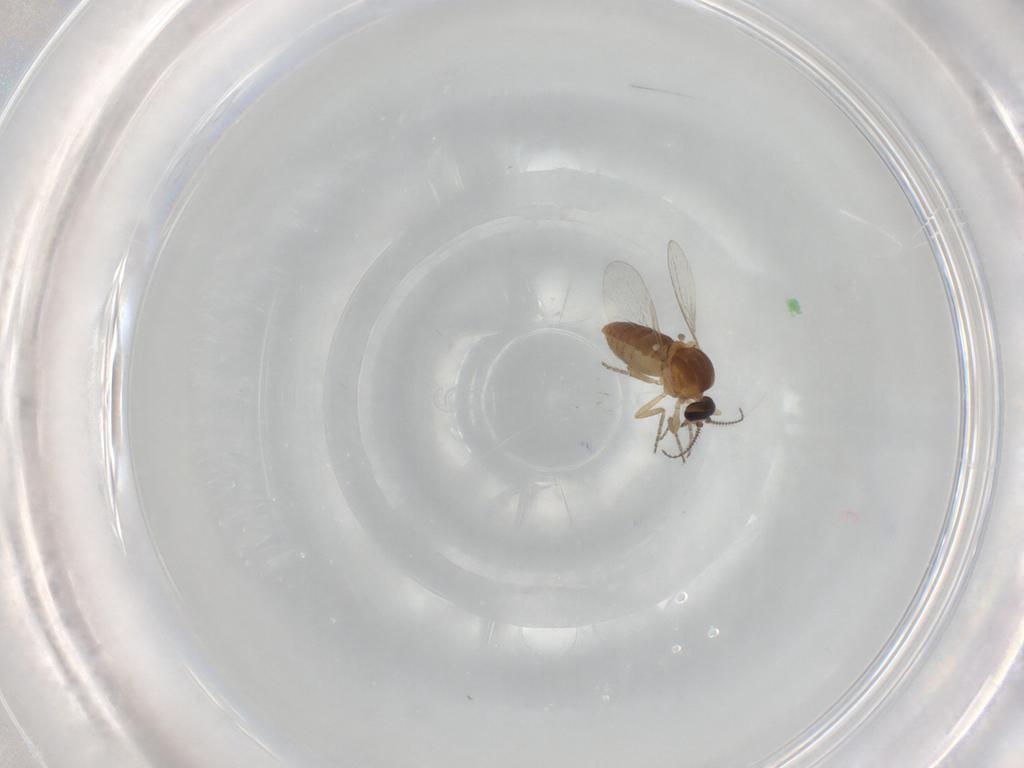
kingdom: Animalia
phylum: Arthropoda
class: Insecta
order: Diptera
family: Ceratopogonidae
